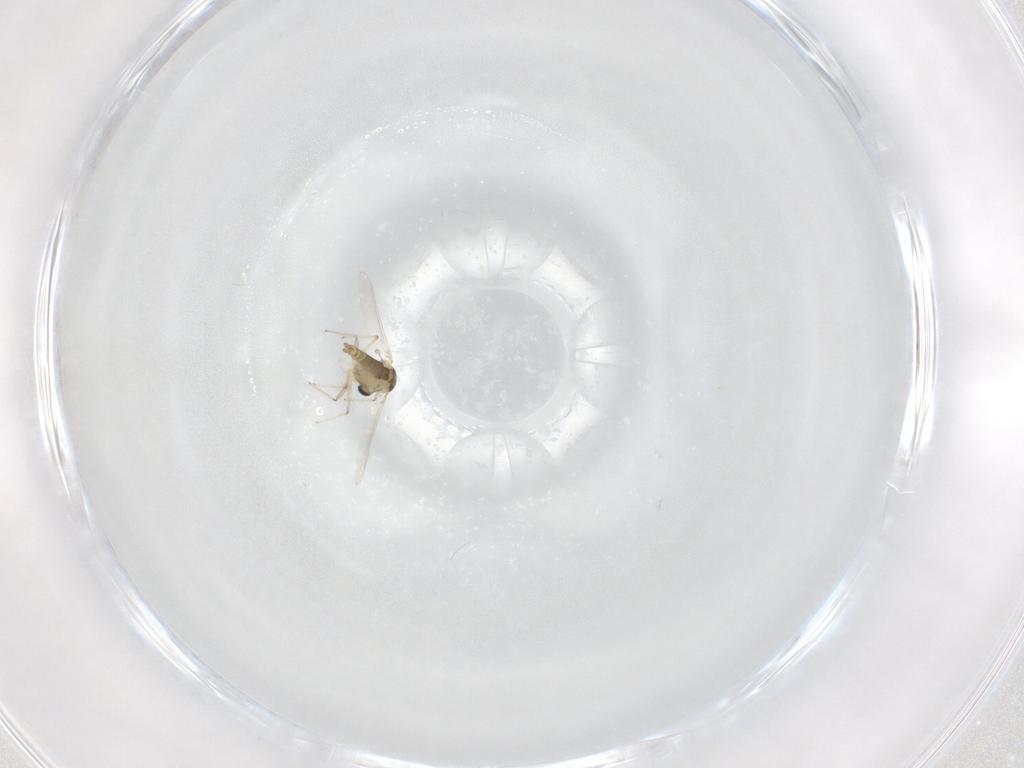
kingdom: Animalia
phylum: Arthropoda
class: Insecta
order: Diptera
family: Chironomidae
